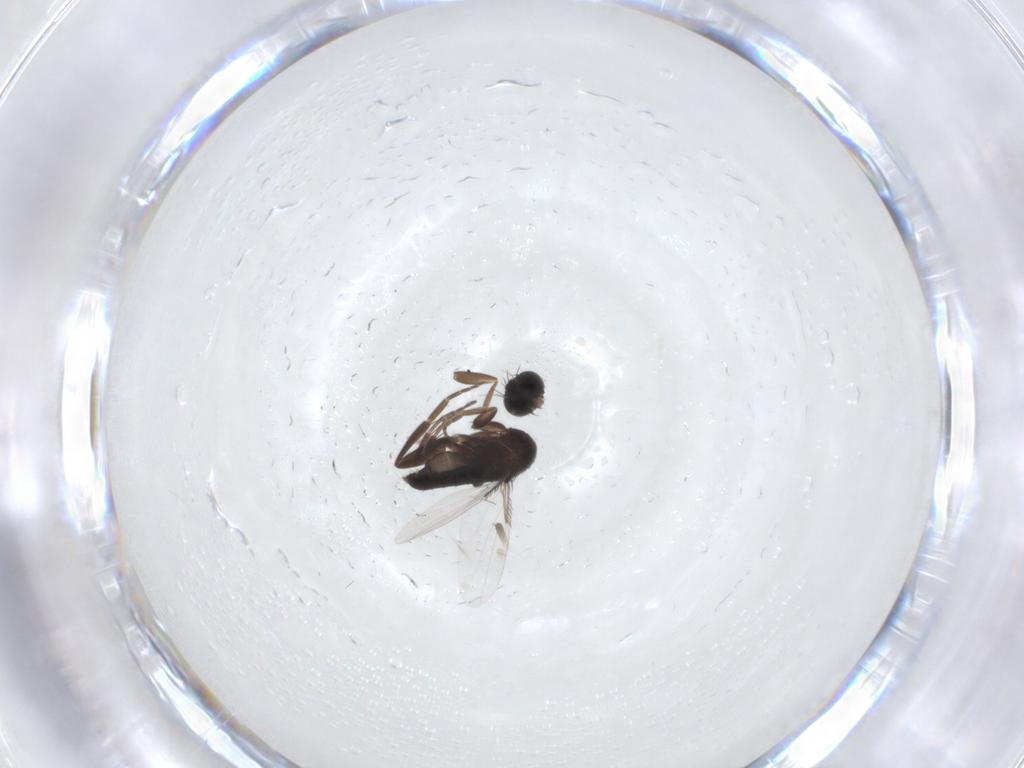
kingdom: Animalia
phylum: Arthropoda
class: Insecta
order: Diptera
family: Phoridae
